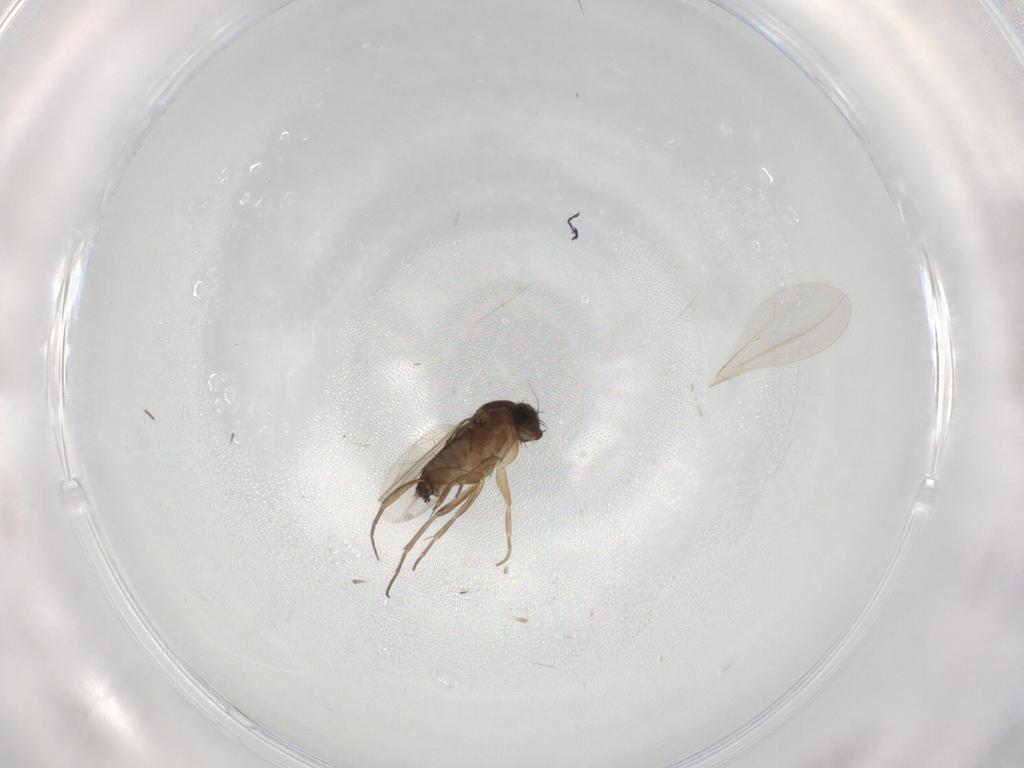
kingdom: Animalia
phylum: Arthropoda
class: Insecta
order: Diptera
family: Phoridae
